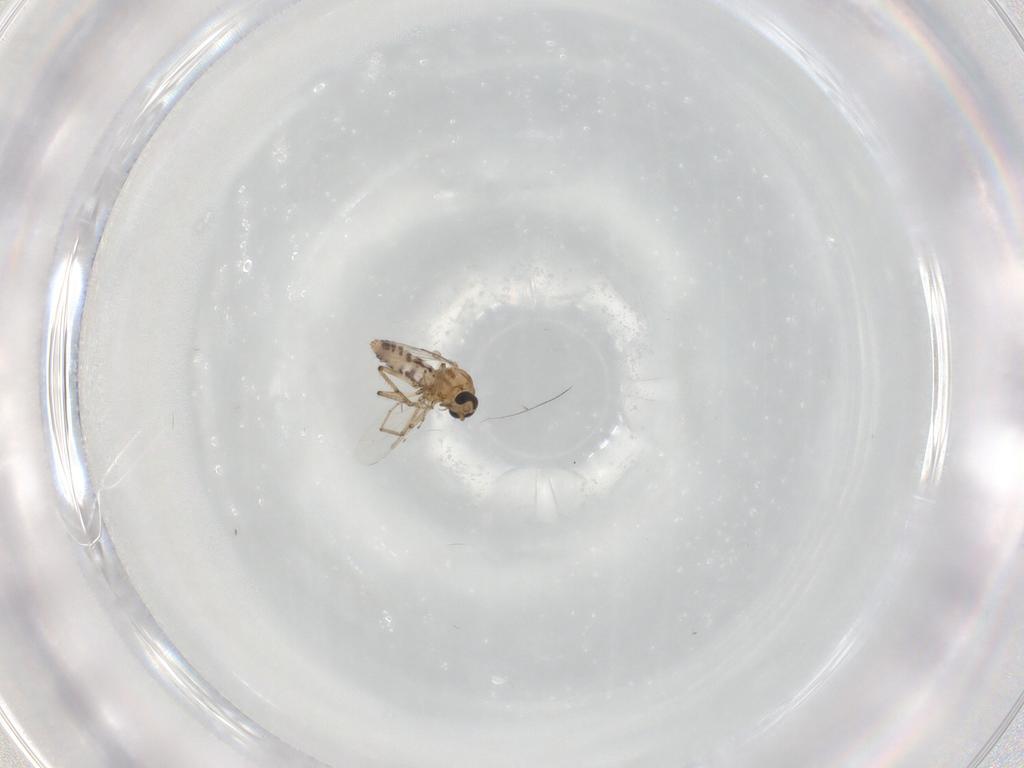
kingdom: Animalia
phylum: Arthropoda
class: Insecta
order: Diptera
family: Ceratopogonidae
